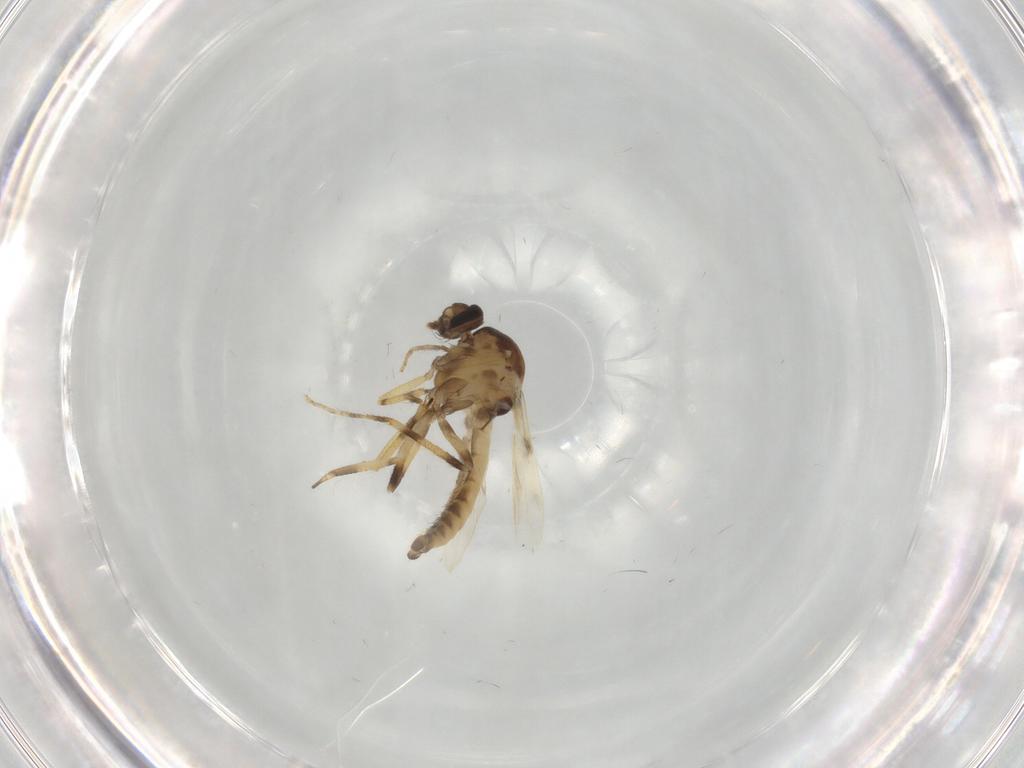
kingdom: Animalia
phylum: Arthropoda
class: Insecta
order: Diptera
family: Ceratopogonidae
